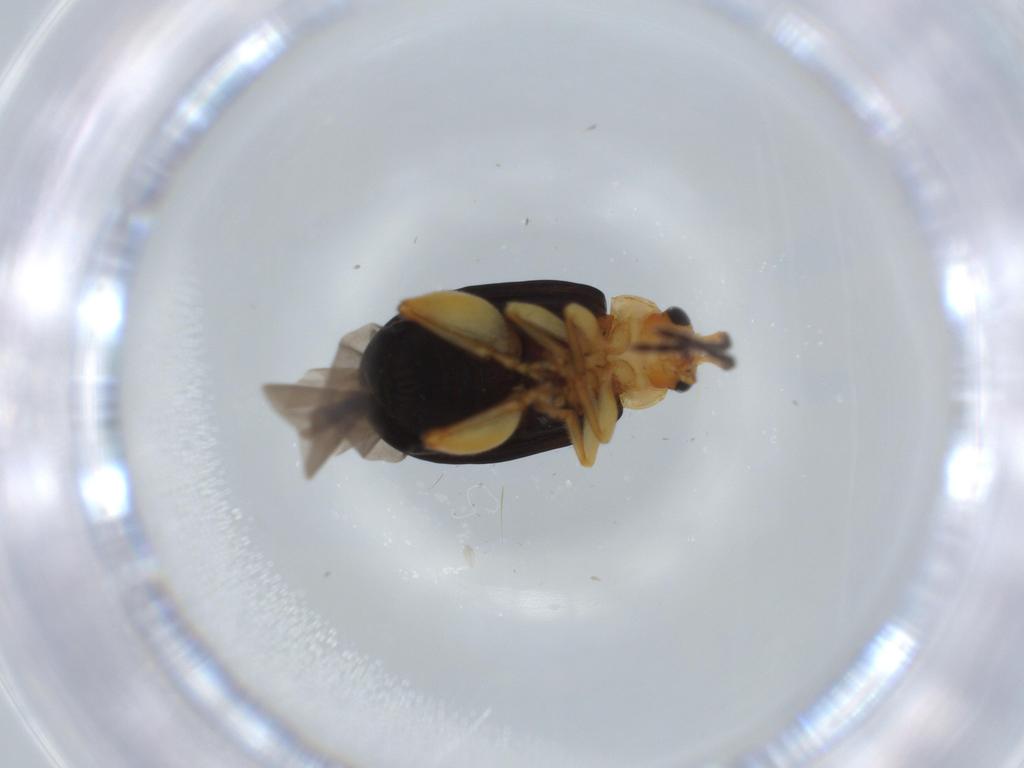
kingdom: Animalia
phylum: Arthropoda
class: Insecta
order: Coleoptera
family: Chrysomelidae
